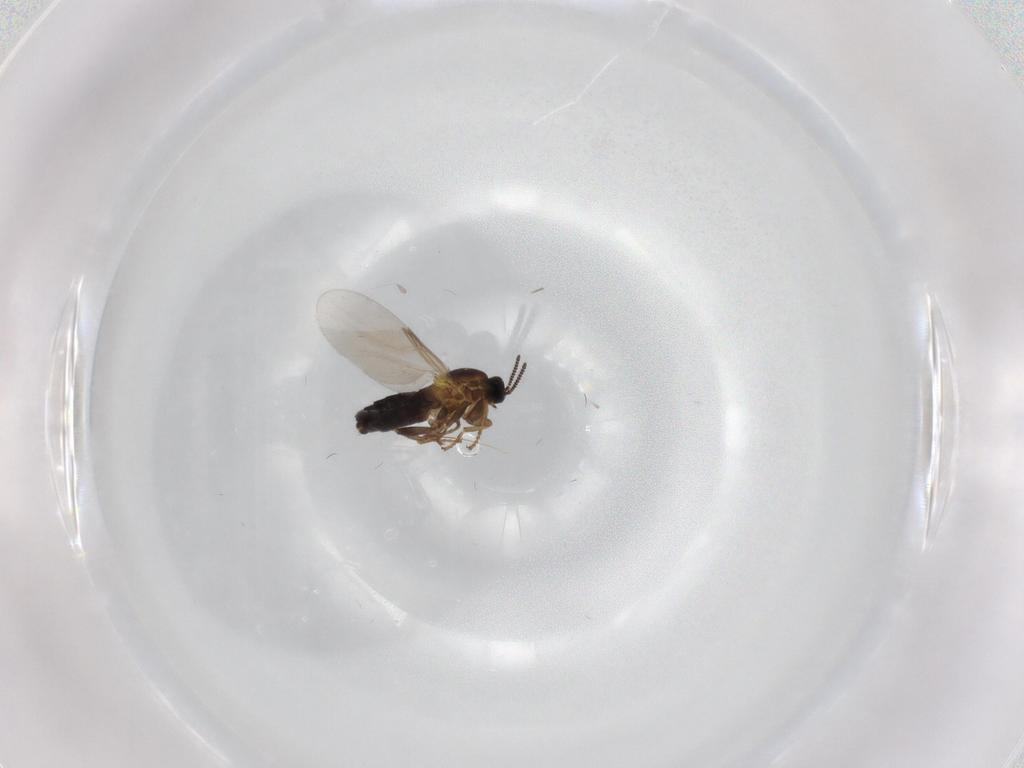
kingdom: Animalia
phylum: Arthropoda
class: Insecta
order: Diptera
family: Scatopsidae
